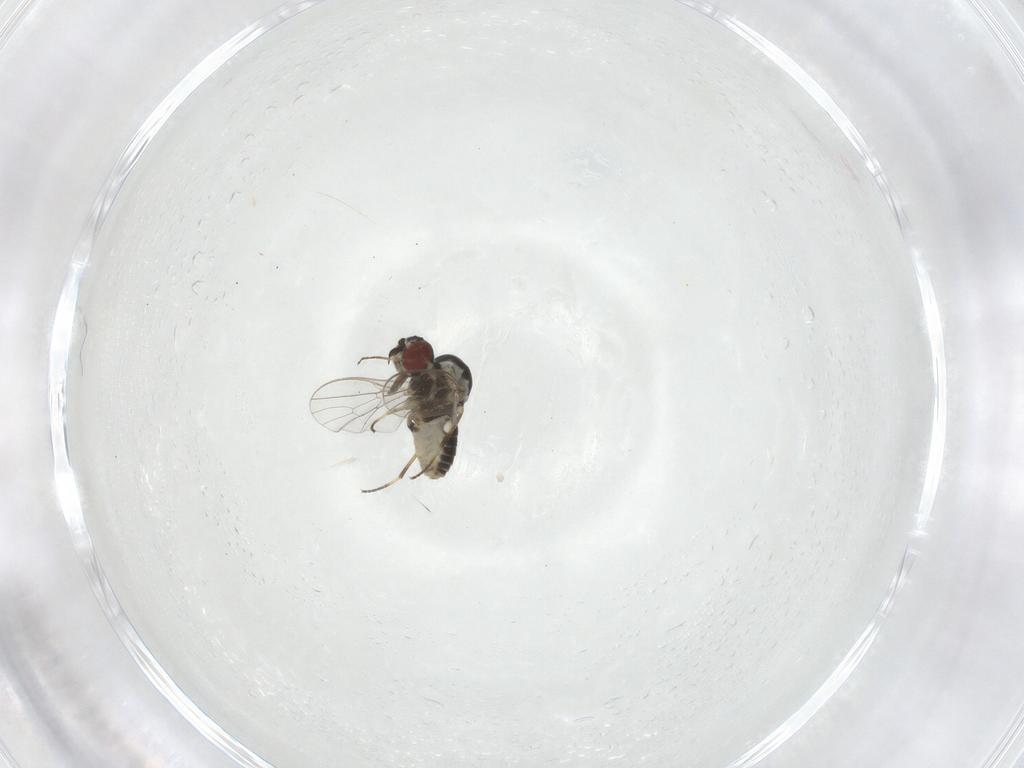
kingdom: Animalia
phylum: Arthropoda
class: Insecta
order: Diptera
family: Mythicomyiidae
